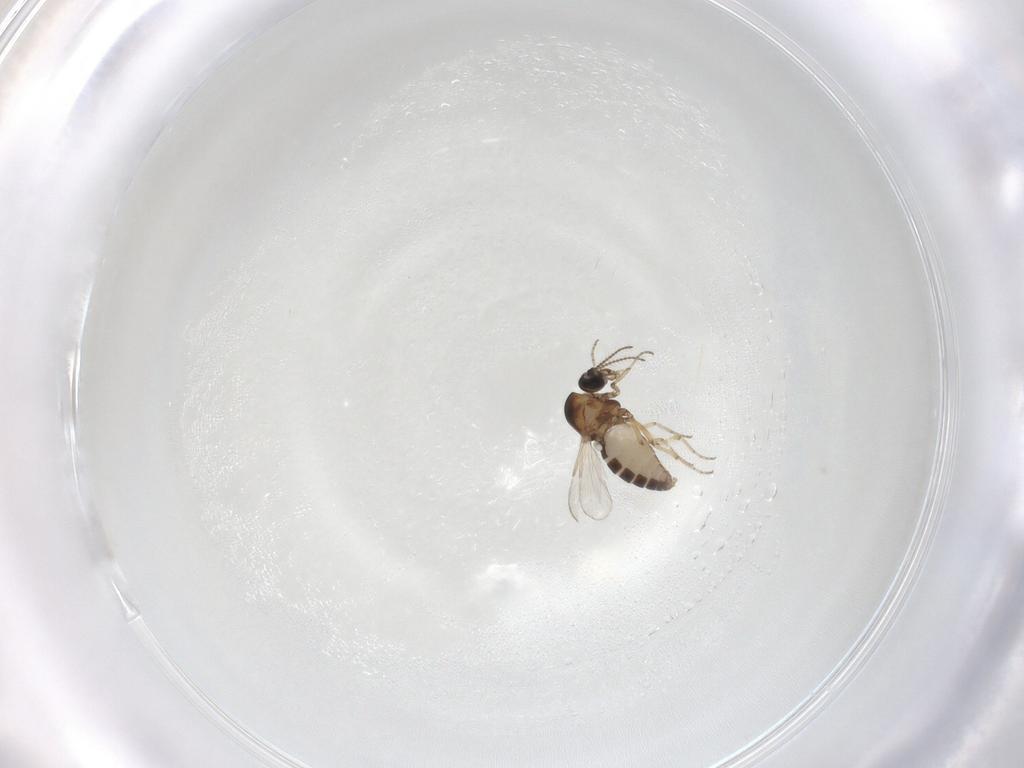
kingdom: Animalia
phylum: Arthropoda
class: Insecta
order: Diptera
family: Ceratopogonidae
